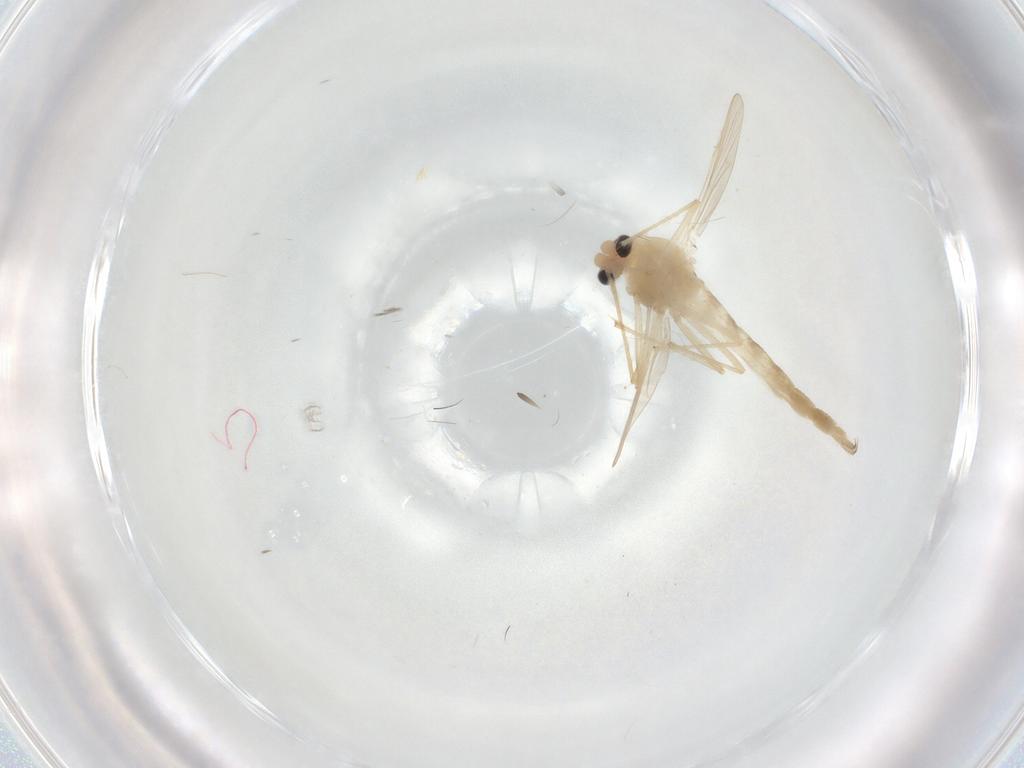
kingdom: Animalia
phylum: Arthropoda
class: Insecta
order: Diptera
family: Chironomidae
